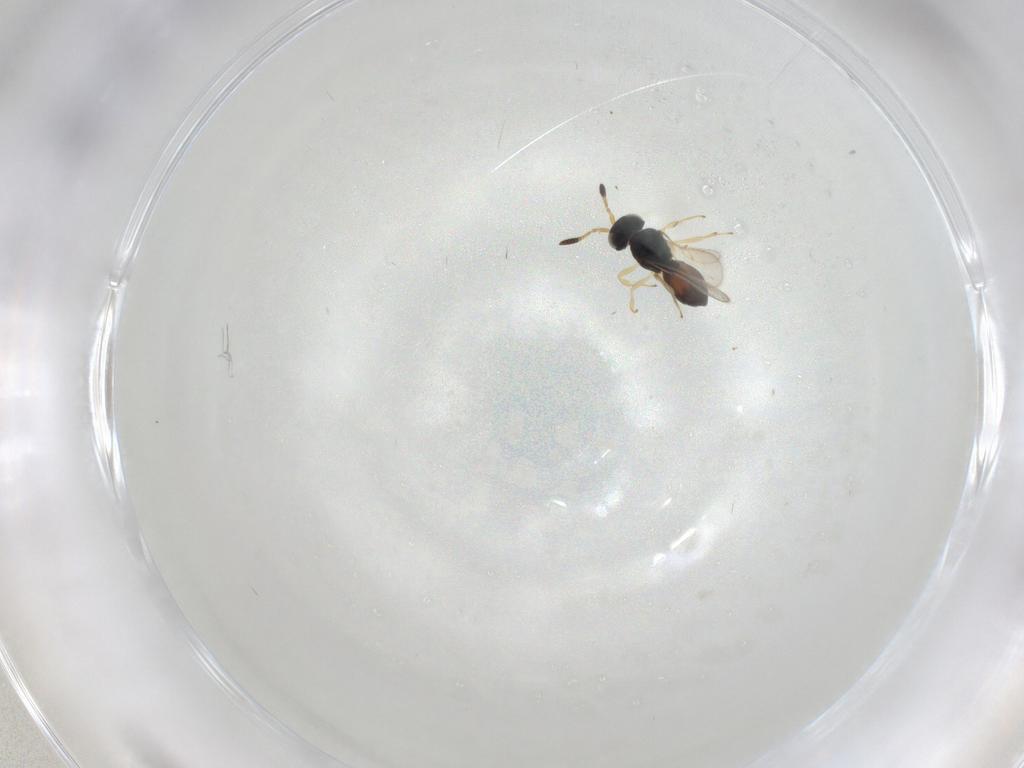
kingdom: Animalia
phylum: Arthropoda
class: Insecta
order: Hymenoptera
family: Scelionidae
